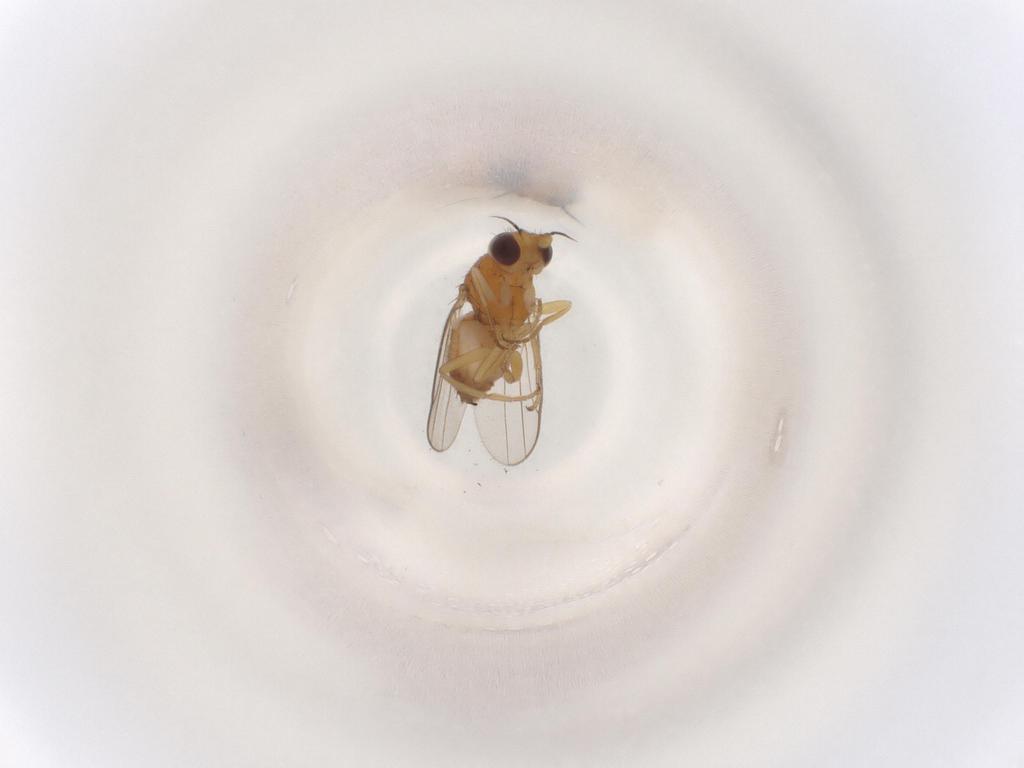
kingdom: Animalia
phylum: Arthropoda
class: Insecta
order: Diptera
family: Chloropidae
